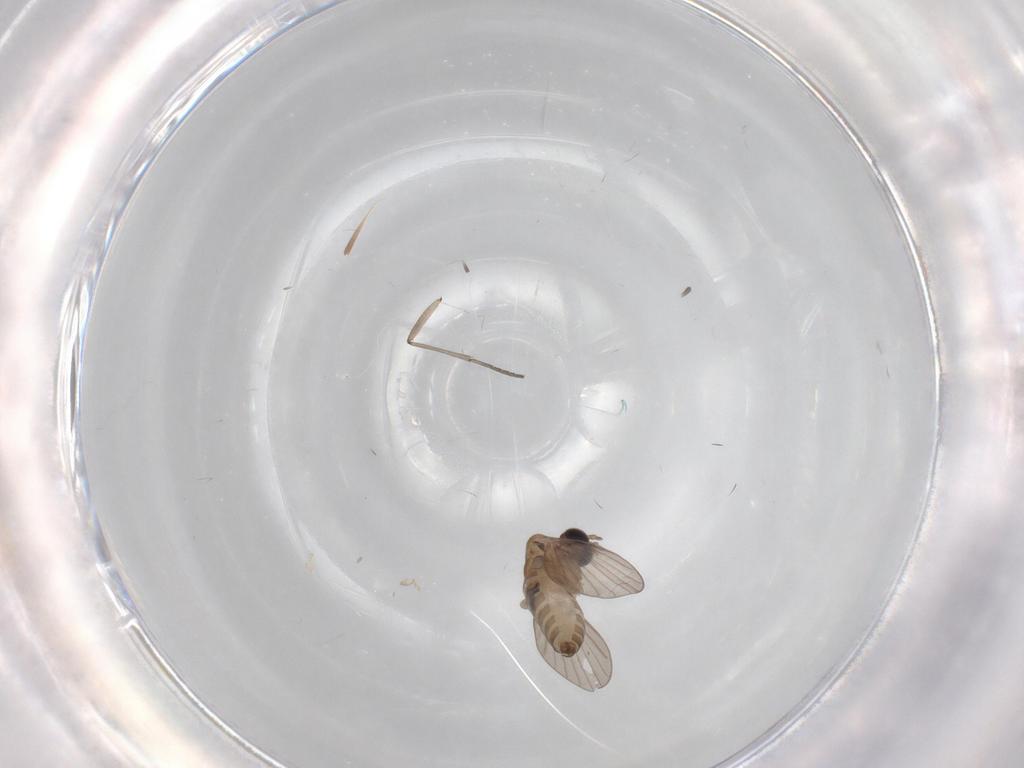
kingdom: Animalia
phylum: Arthropoda
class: Insecta
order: Diptera
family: Sciaridae
